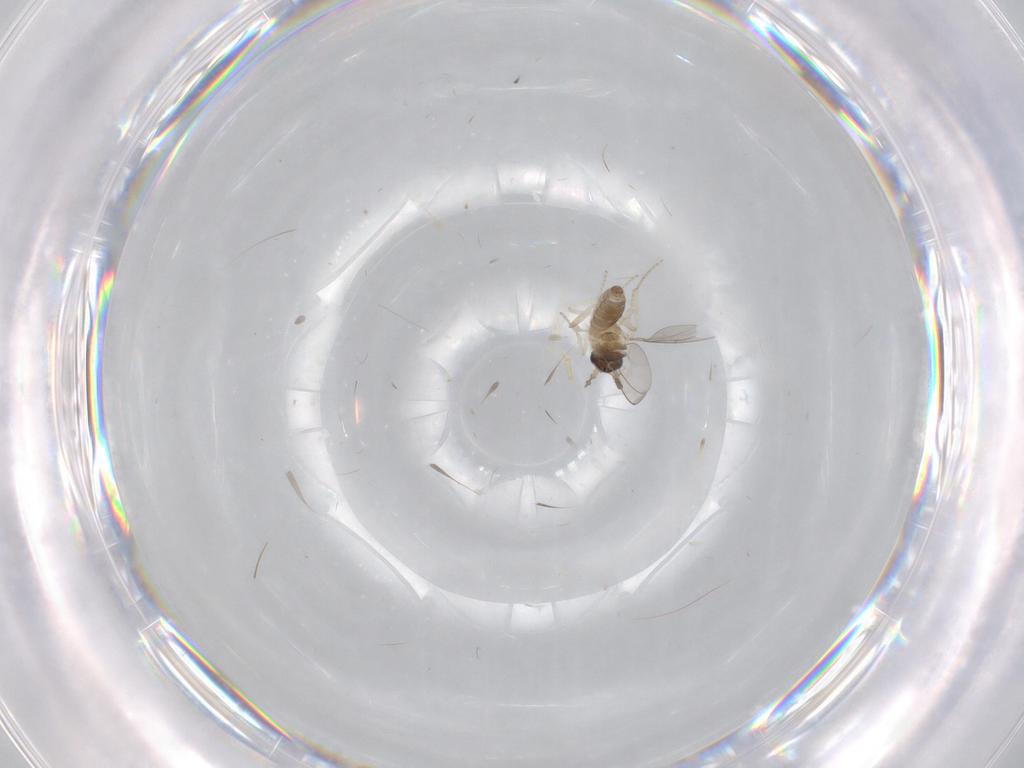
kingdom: Animalia
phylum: Arthropoda
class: Insecta
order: Diptera
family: Cecidomyiidae
